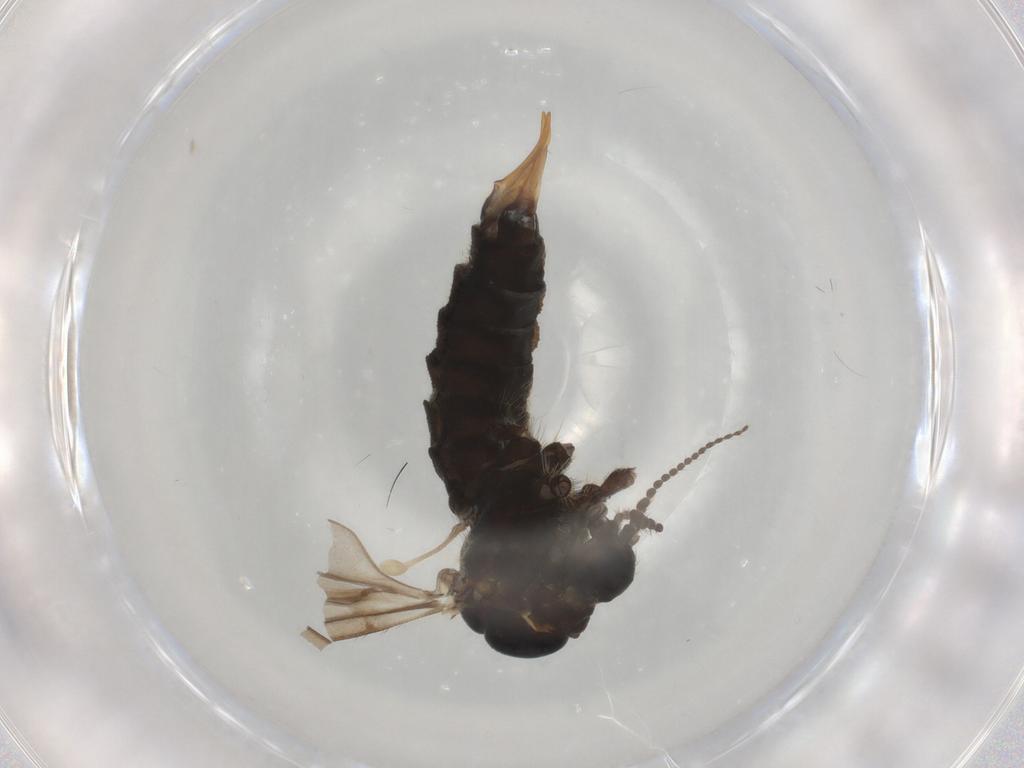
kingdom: Animalia
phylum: Arthropoda
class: Insecta
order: Diptera
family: Limoniidae
